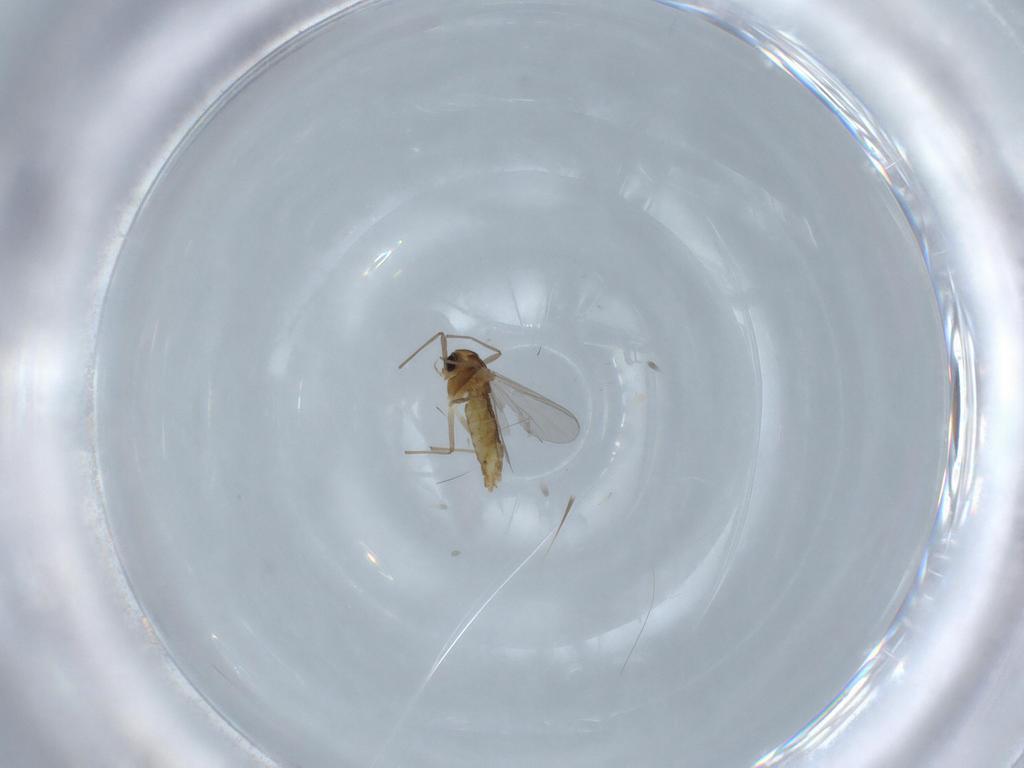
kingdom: Animalia
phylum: Arthropoda
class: Insecta
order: Diptera
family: Chironomidae
